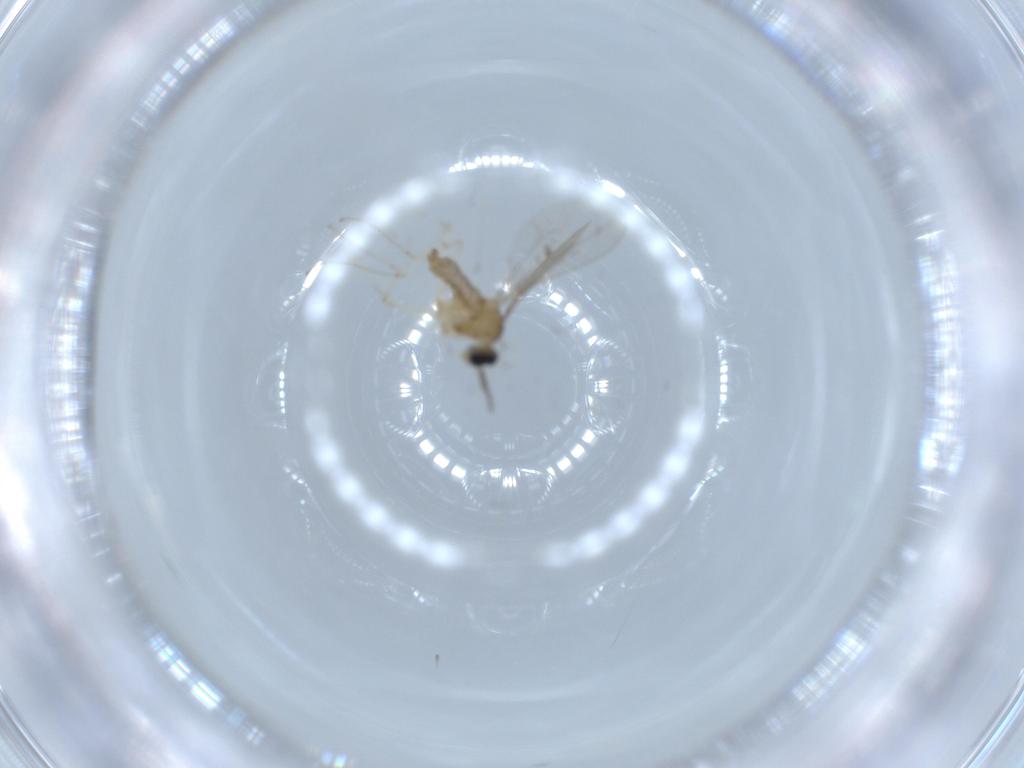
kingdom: Animalia
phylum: Arthropoda
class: Insecta
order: Diptera
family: Cecidomyiidae
